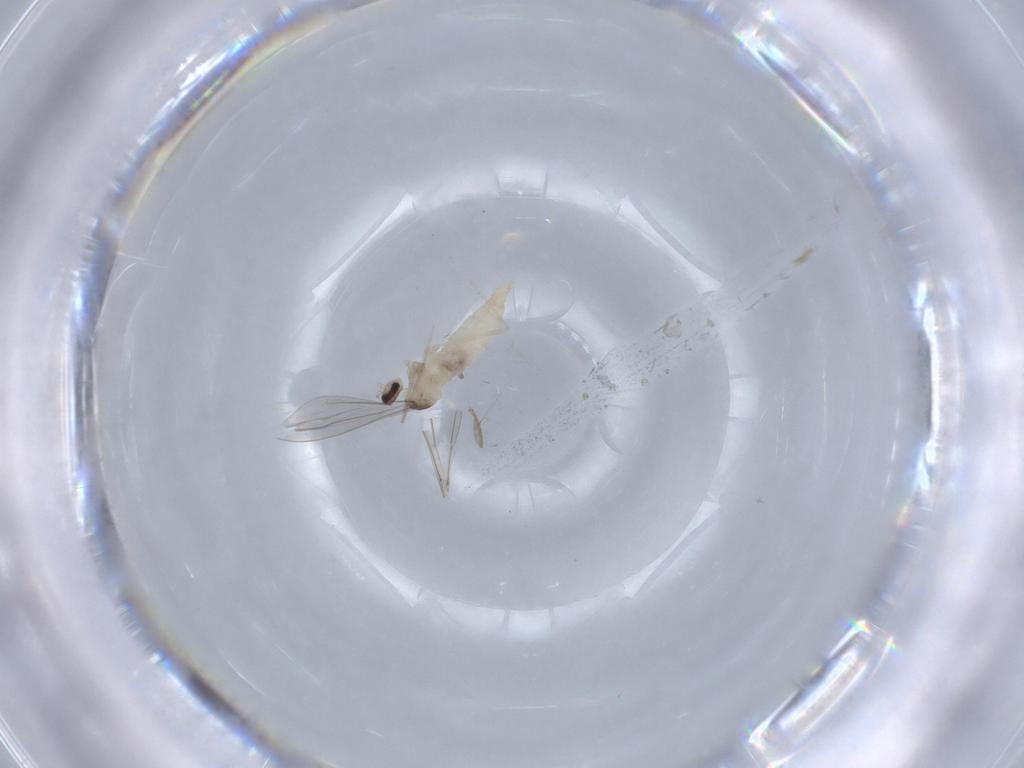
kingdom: Animalia
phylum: Arthropoda
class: Insecta
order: Diptera
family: Cecidomyiidae
